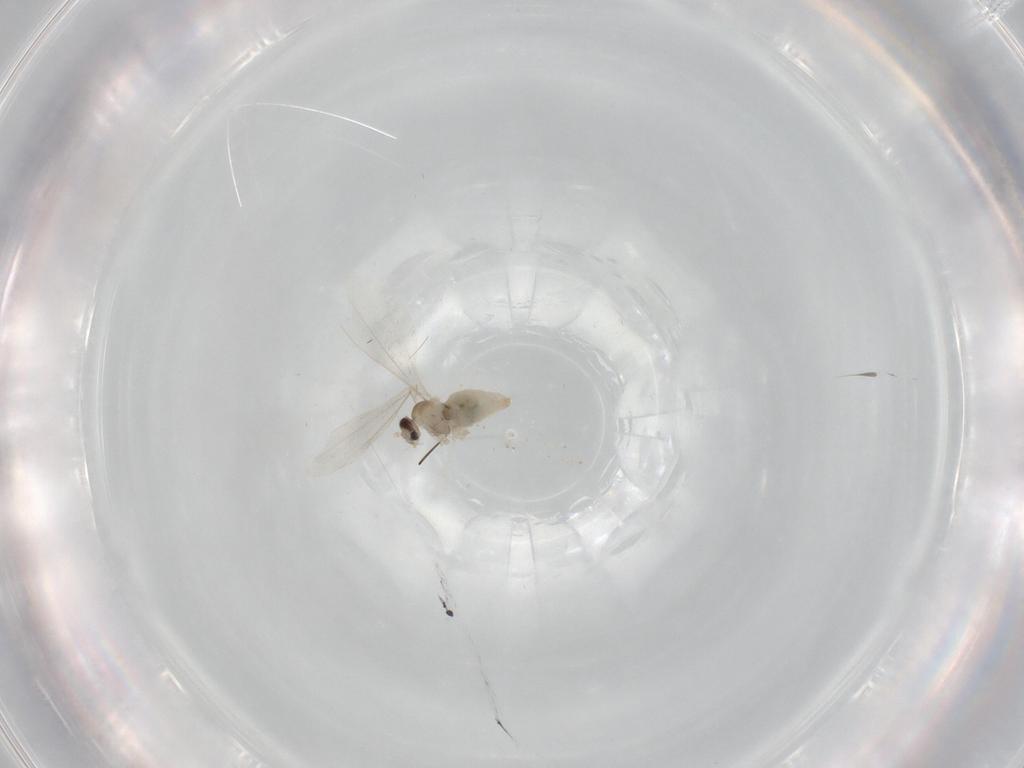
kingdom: Animalia
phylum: Arthropoda
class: Insecta
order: Diptera
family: Cecidomyiidae
